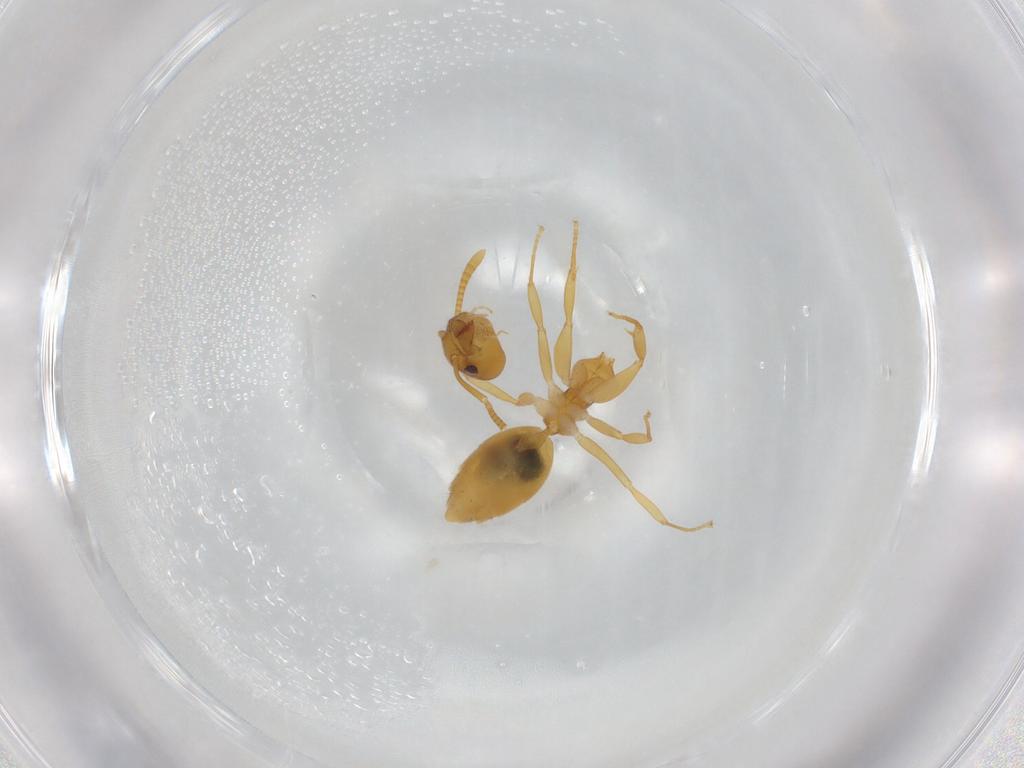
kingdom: Animalia
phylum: Arthropoda
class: Insecta
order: Hymenoptera
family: Formicidae
